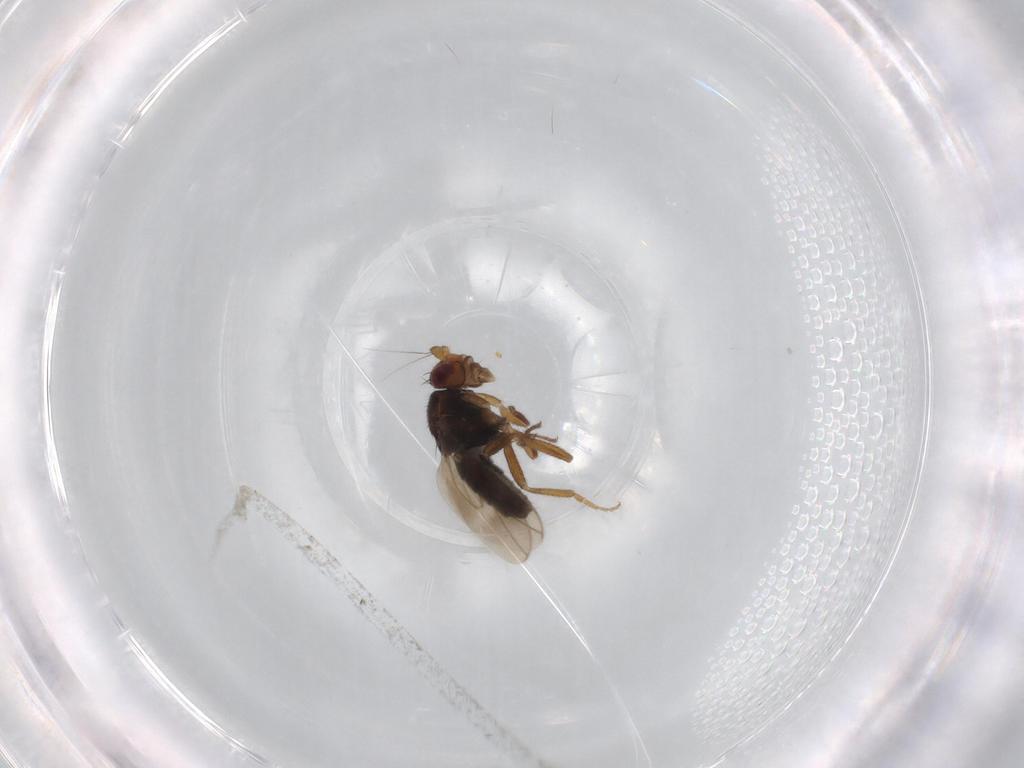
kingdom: Animalia
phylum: Arthropoda
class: Insecta
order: Diptera
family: Sphaeroceridae
